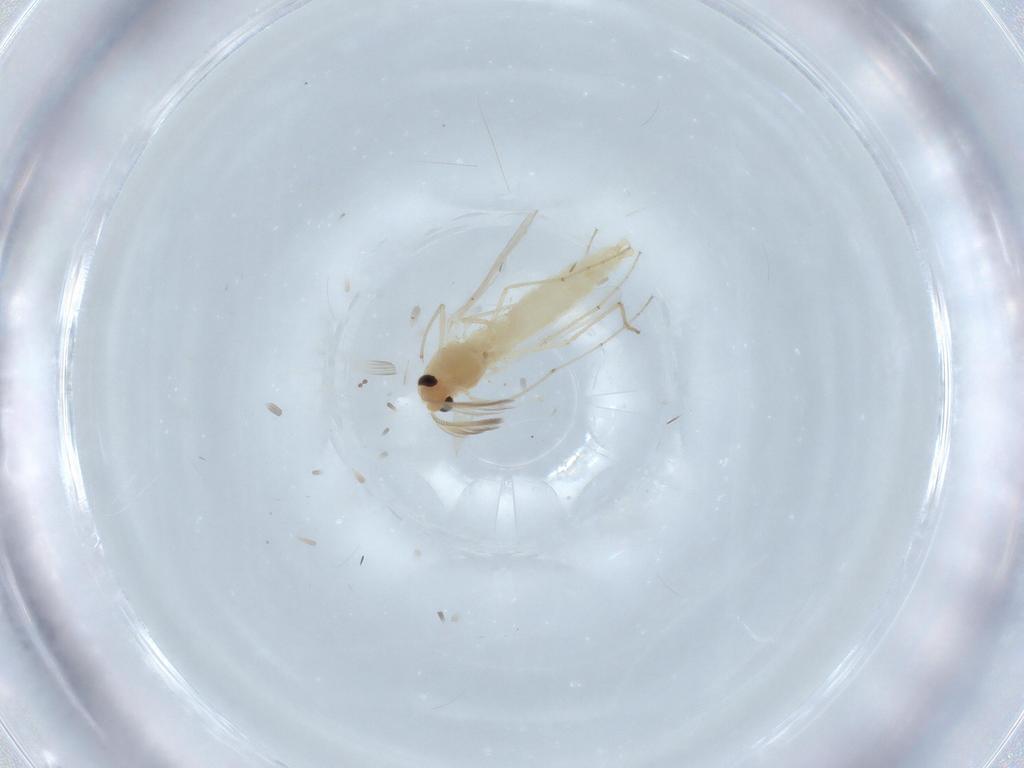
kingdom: Animalia
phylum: Arthropoda
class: Insecta
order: Diptera
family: Chironomidae
